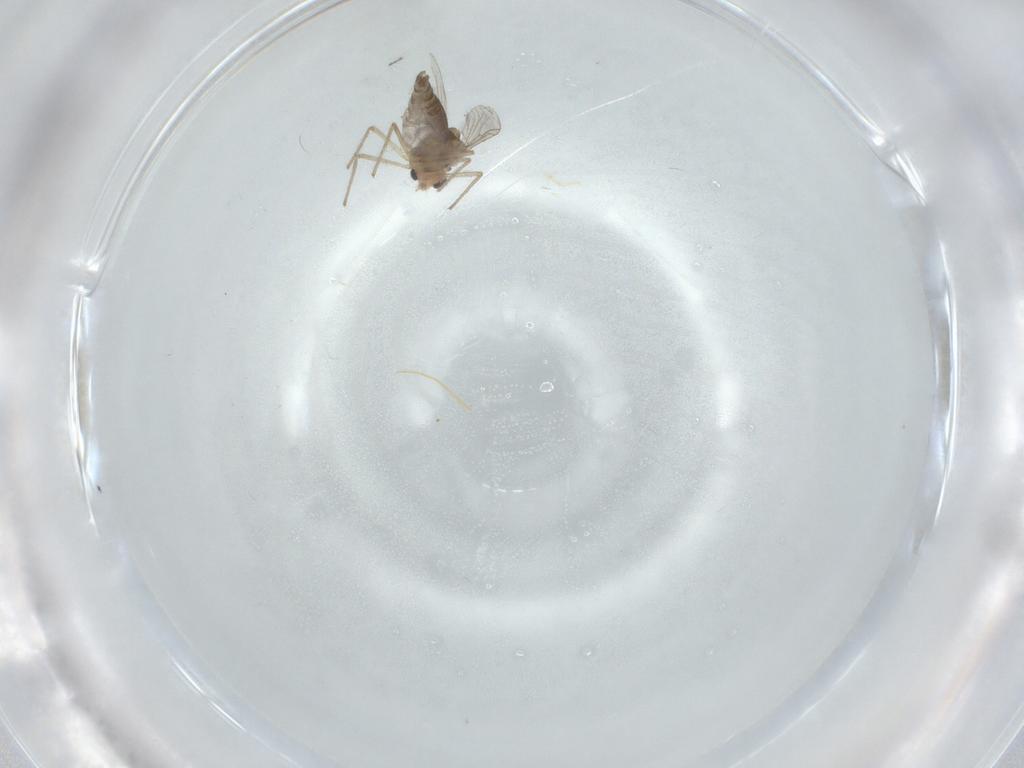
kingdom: Animalia
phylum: Arthropoda
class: Insecta
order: Diptera
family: Chironomidae
